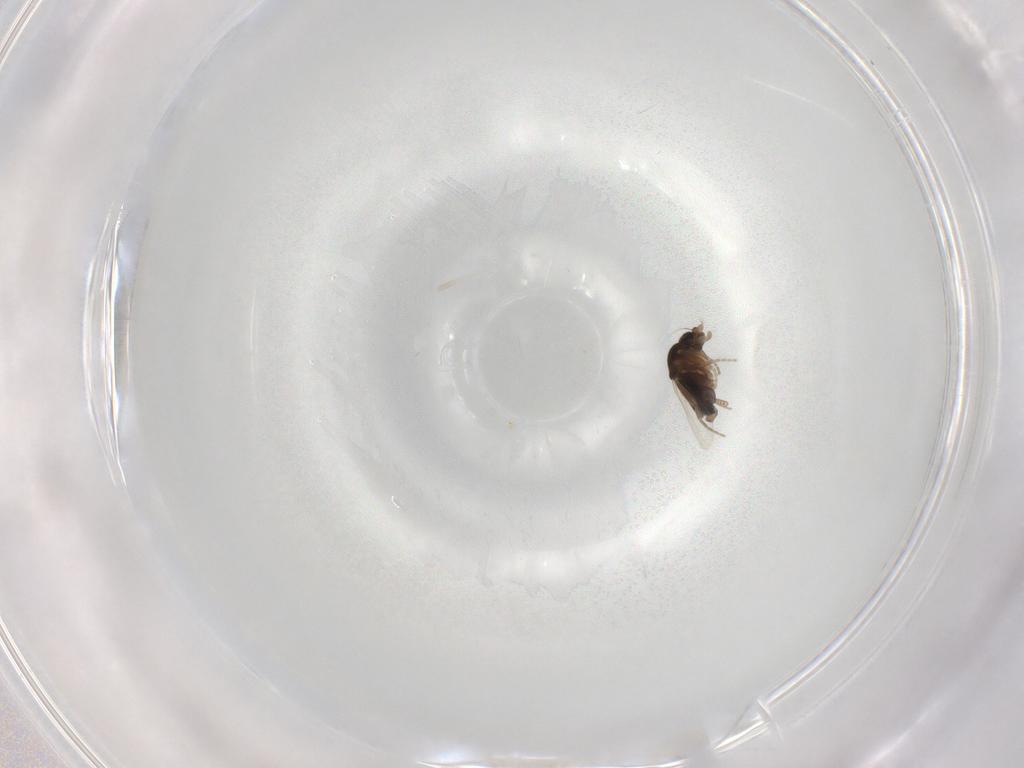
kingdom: Animalia
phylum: Arthropoda
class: Insecta
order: Diptera
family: Phoridae
